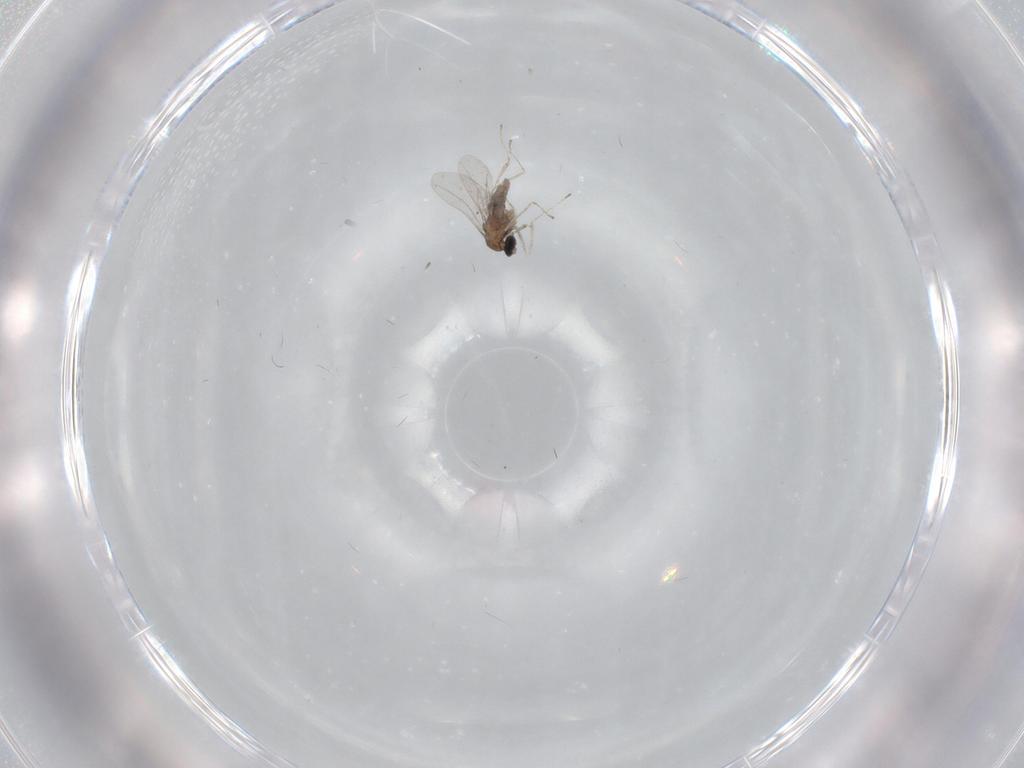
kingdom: Animalia
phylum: Arthropoda
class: Insecta
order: Diptera
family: Cecidomyiidae
